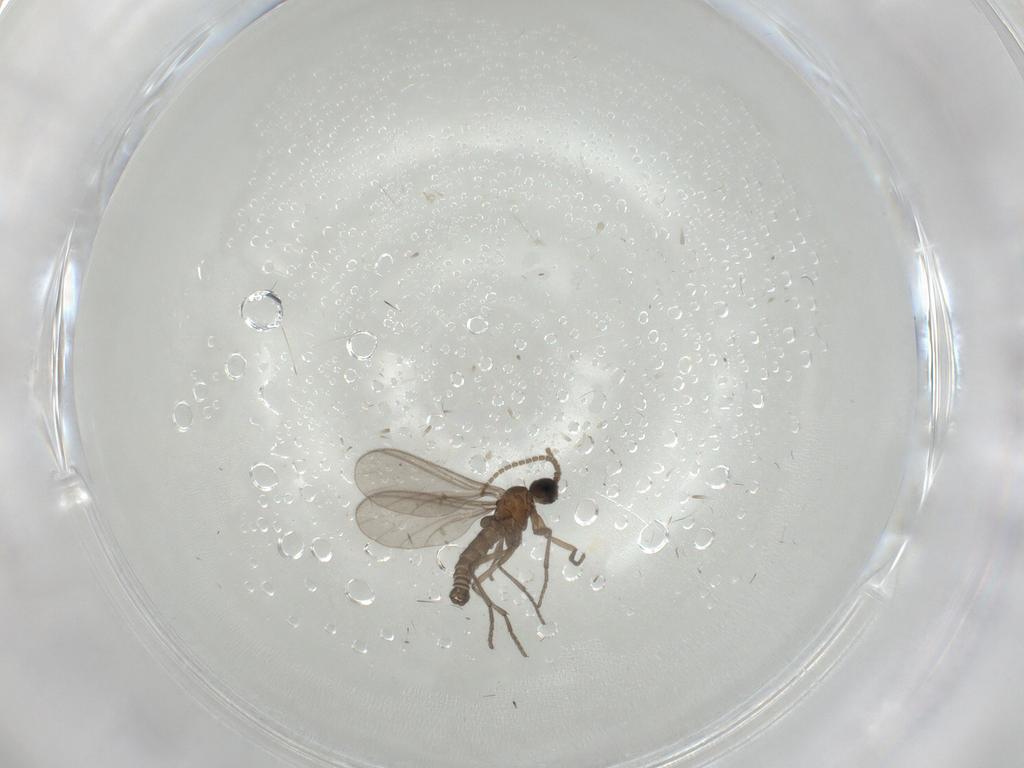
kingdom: Animalia
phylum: Arthropoda
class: Insecta
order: Diptera
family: Sciaridae
